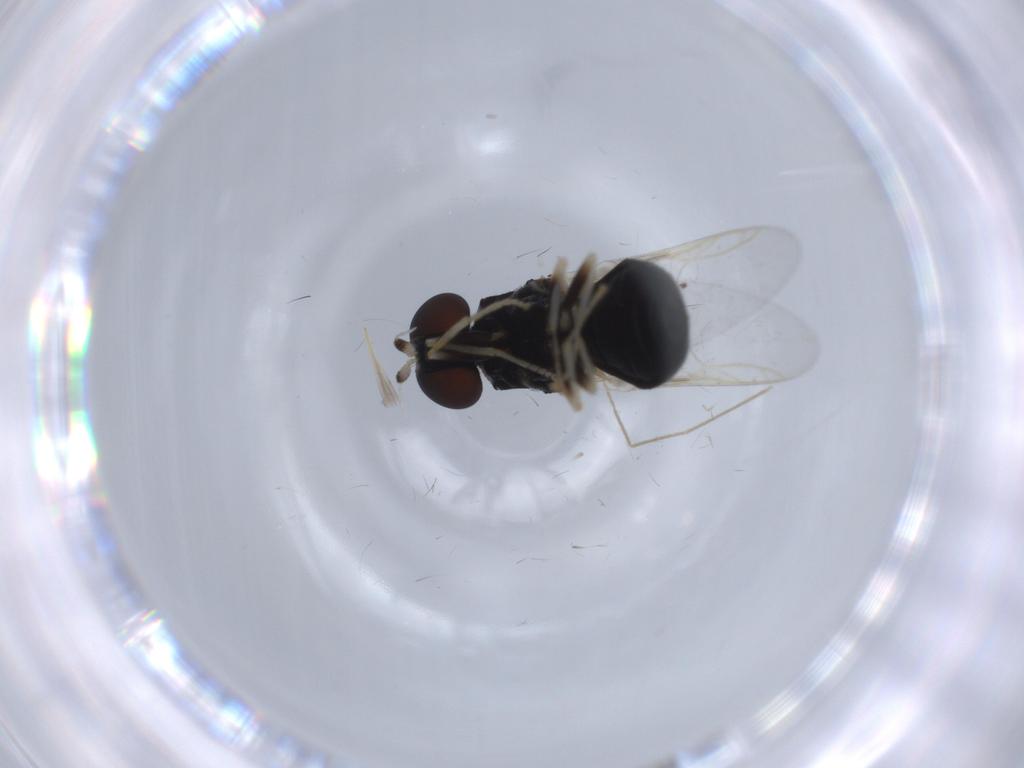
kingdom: Animalia
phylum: Arthropoda
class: Insecta
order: Diptera
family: Stratiomyidae
